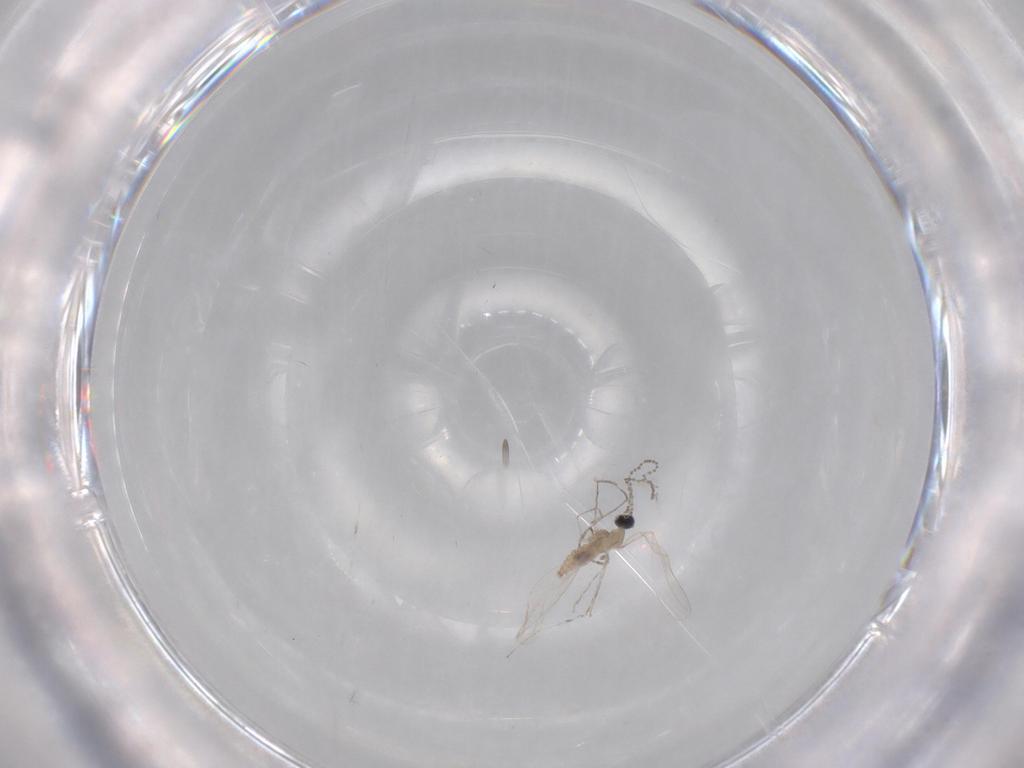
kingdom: Animalia
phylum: Arthropoda
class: Insecta
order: Diptera
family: Sciaridae
